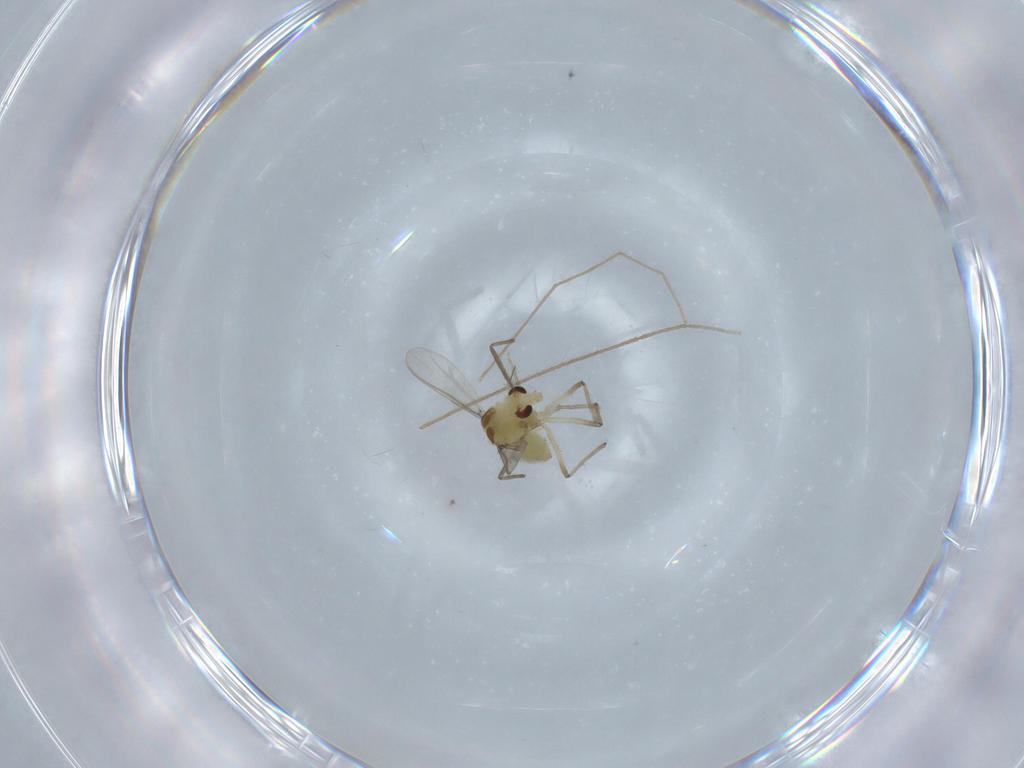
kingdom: Animalia
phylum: Arthropoda
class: Insecta
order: Diptera
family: Chironomidae
